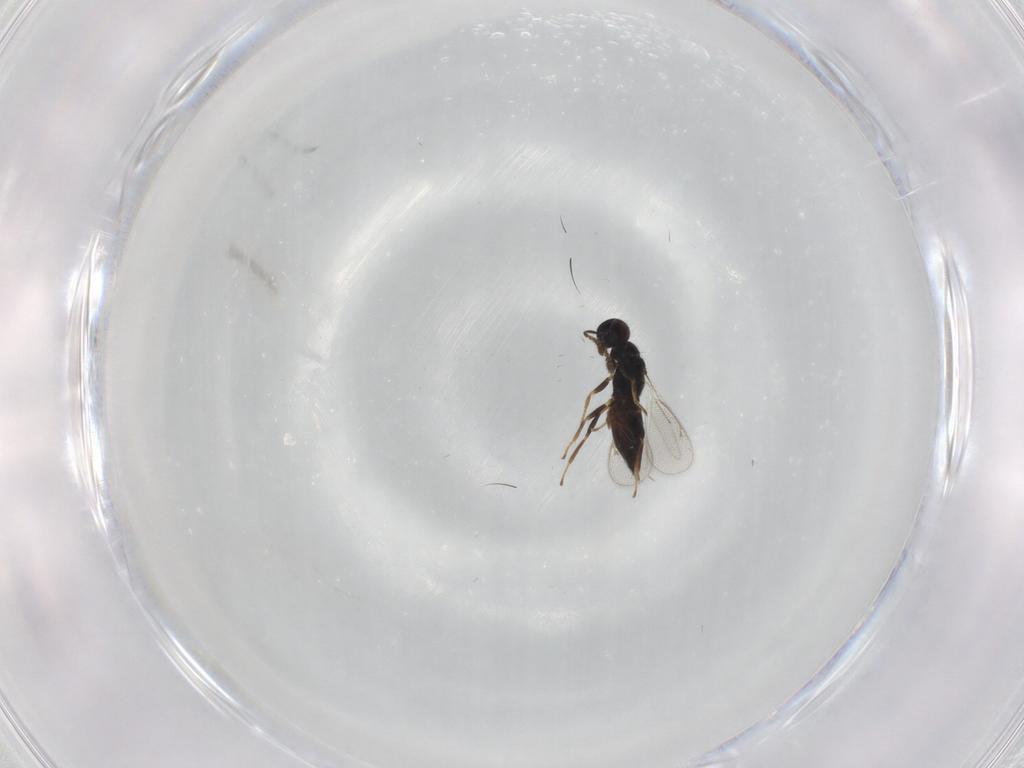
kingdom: Animalia
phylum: Arthropoda
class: Insecta
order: Hymenoptera
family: Eulophidae
